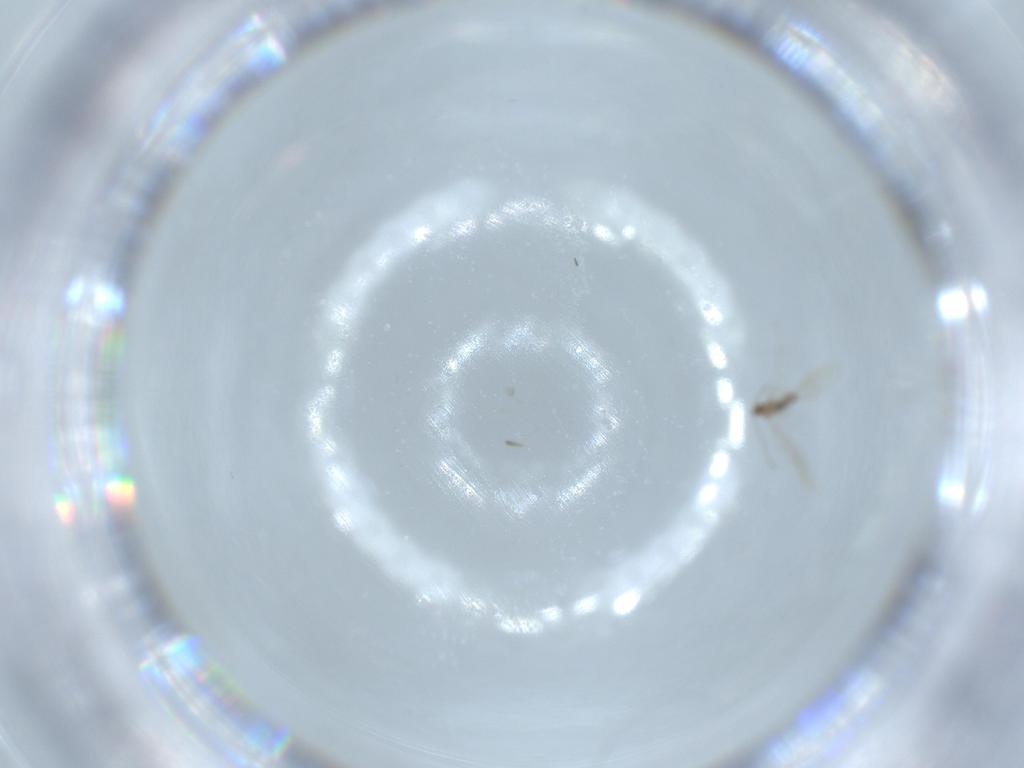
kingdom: Animalia
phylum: Arthropoda
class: Insecta
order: Diptera
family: Cecidomyiidae
